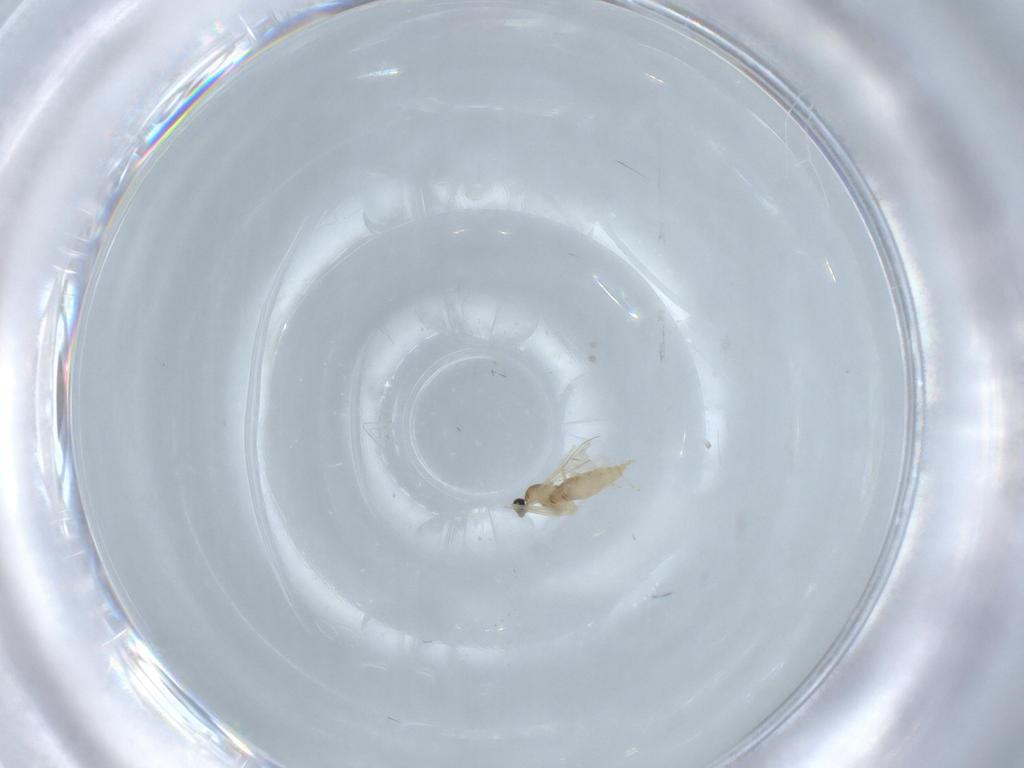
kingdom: Animalia
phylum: Arthropoda
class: Insecta
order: Diptera
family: Cecidomyiidae
